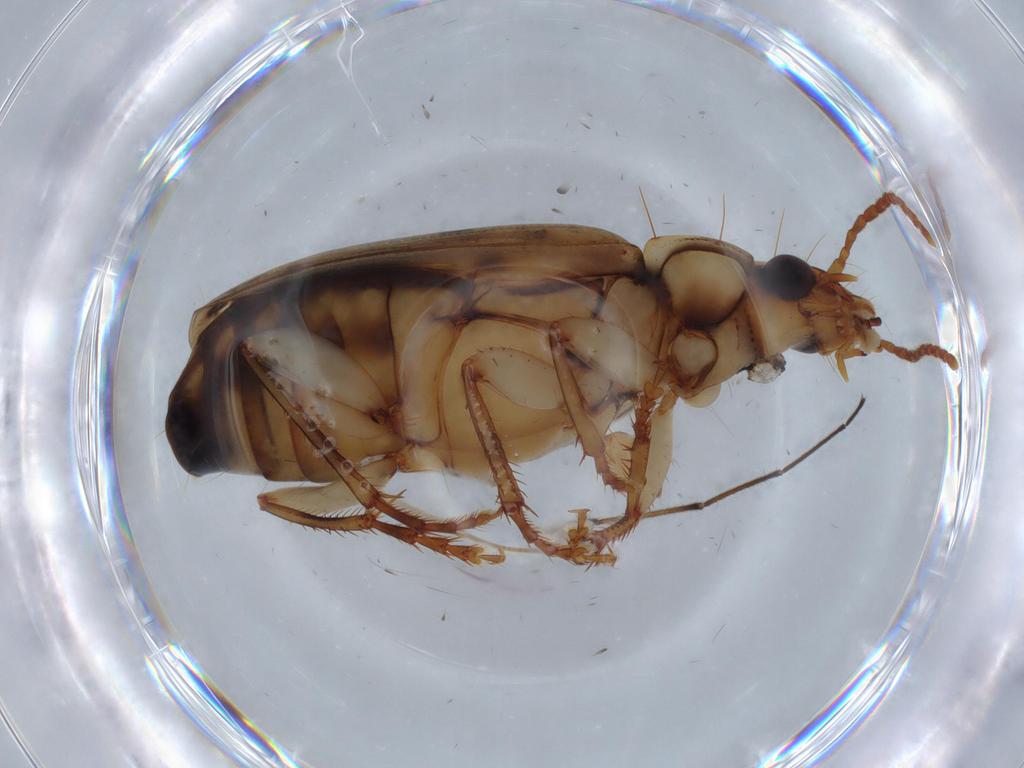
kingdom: Animalia
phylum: Arthropoda
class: Insecta
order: Coleoptera
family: Carabidae
